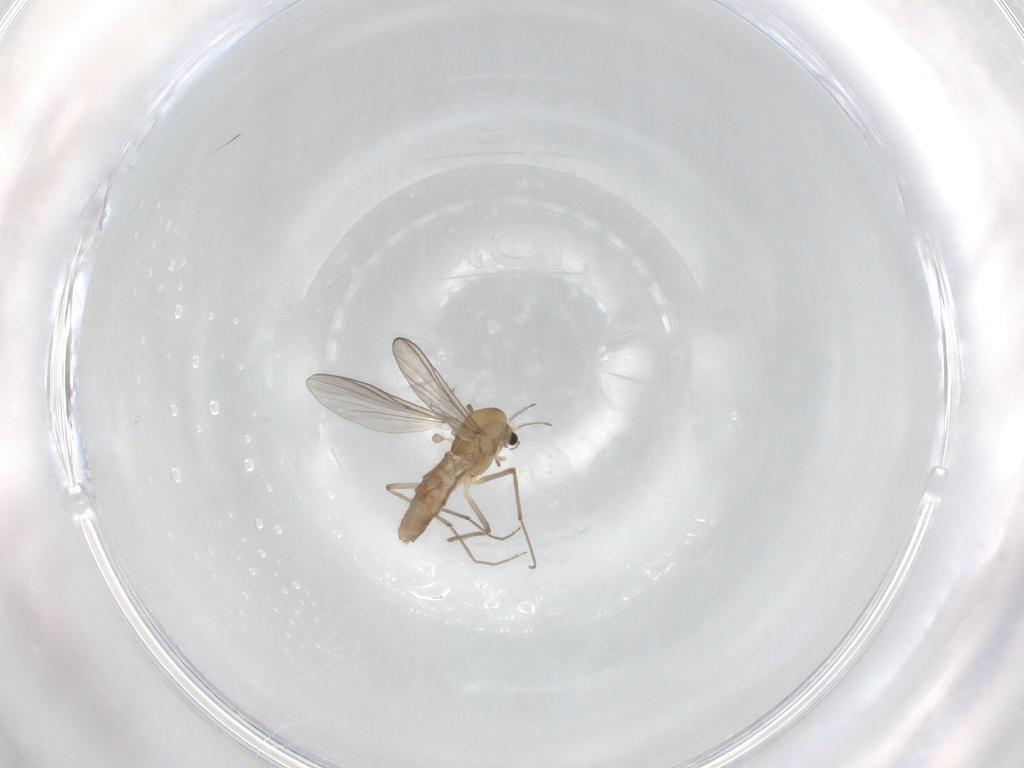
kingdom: Animalia
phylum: Arthropoda
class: Insecta
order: Diptera
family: Chironomidae
